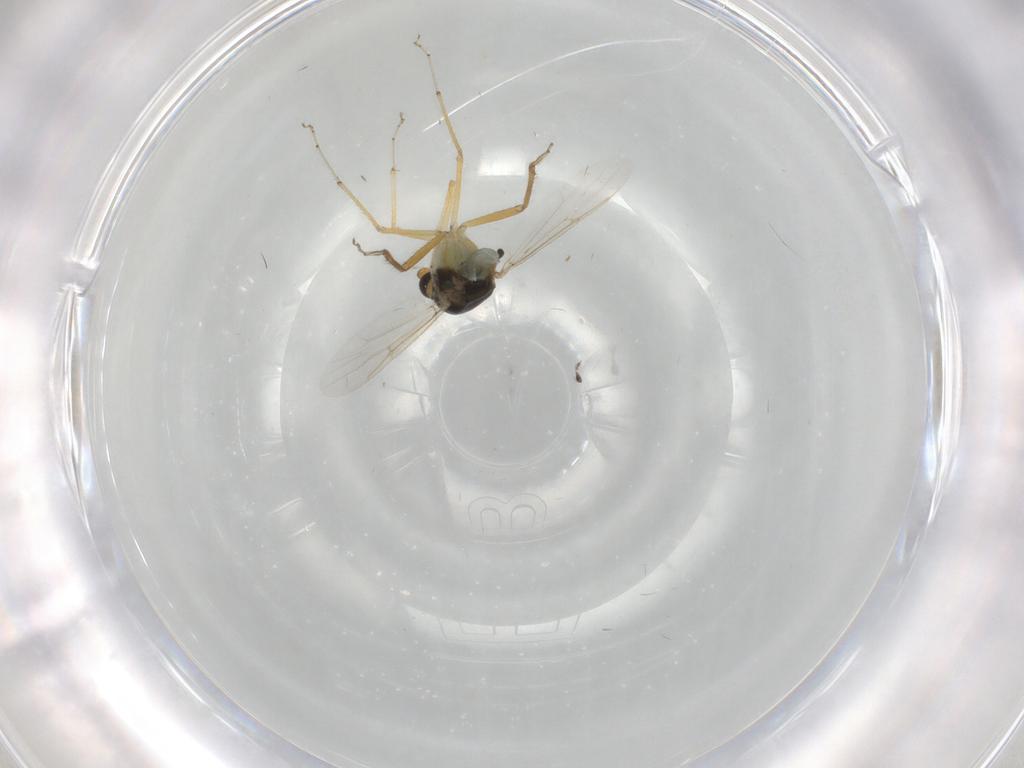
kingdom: Animalia
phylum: Arthropoda
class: Insecta
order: Diptera
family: Ceratopogonidae
